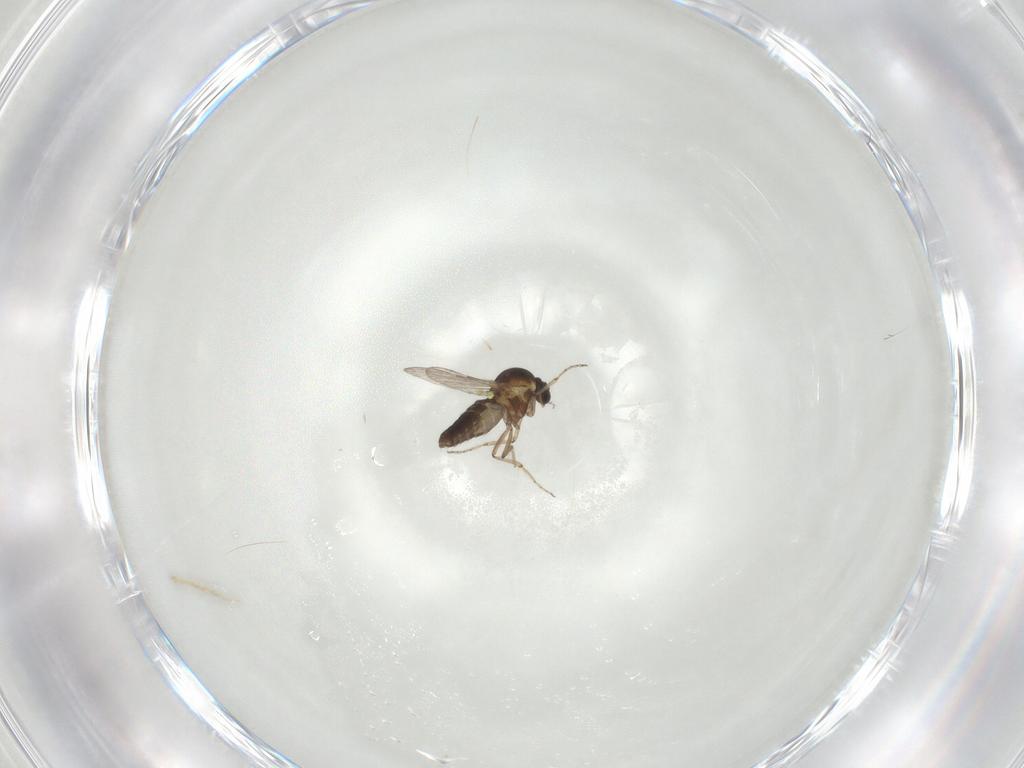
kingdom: Animalia
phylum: Arthropoda
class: Insecta
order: Diptera
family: Ceratopogonidae
